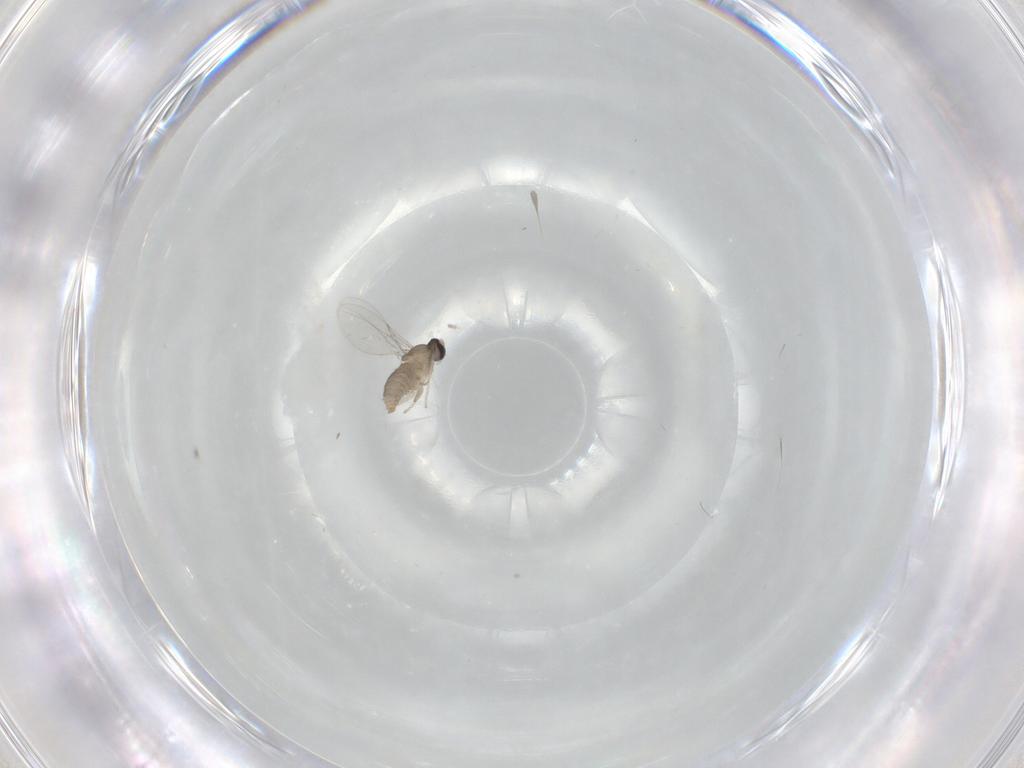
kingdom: Animalia
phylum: Arthropoda
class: Insecta
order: Diptera
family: Cecidomyiidae
